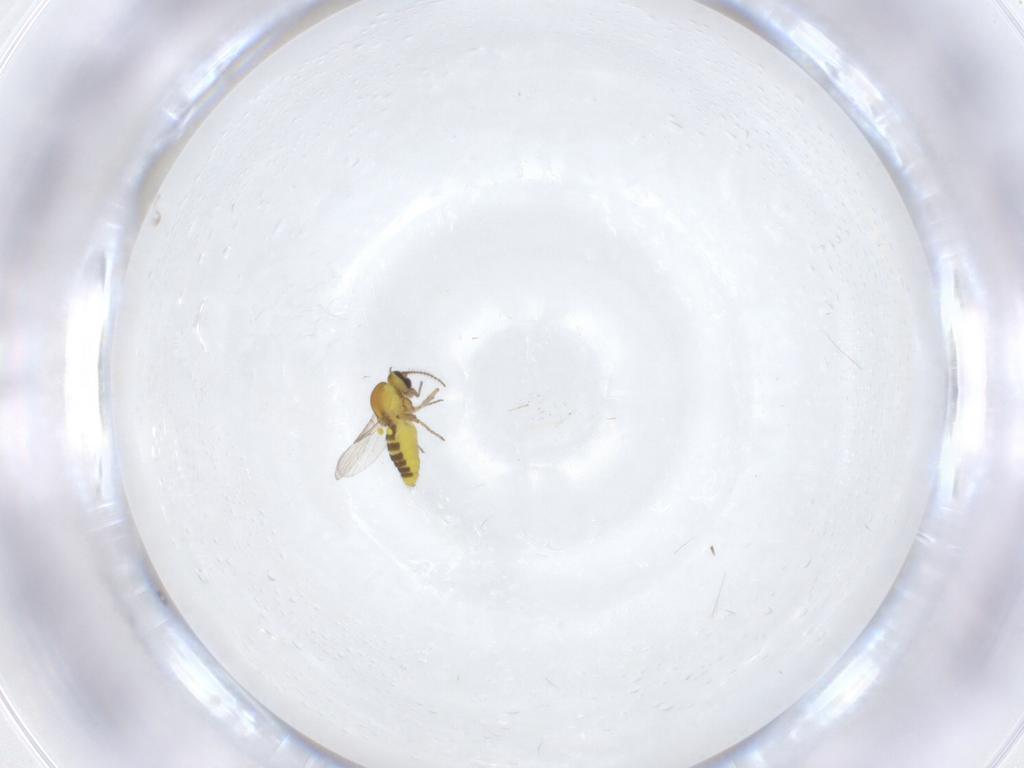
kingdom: Animalia
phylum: Arthropoda
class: Insecta
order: Diptera
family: Ceratopogonidae
